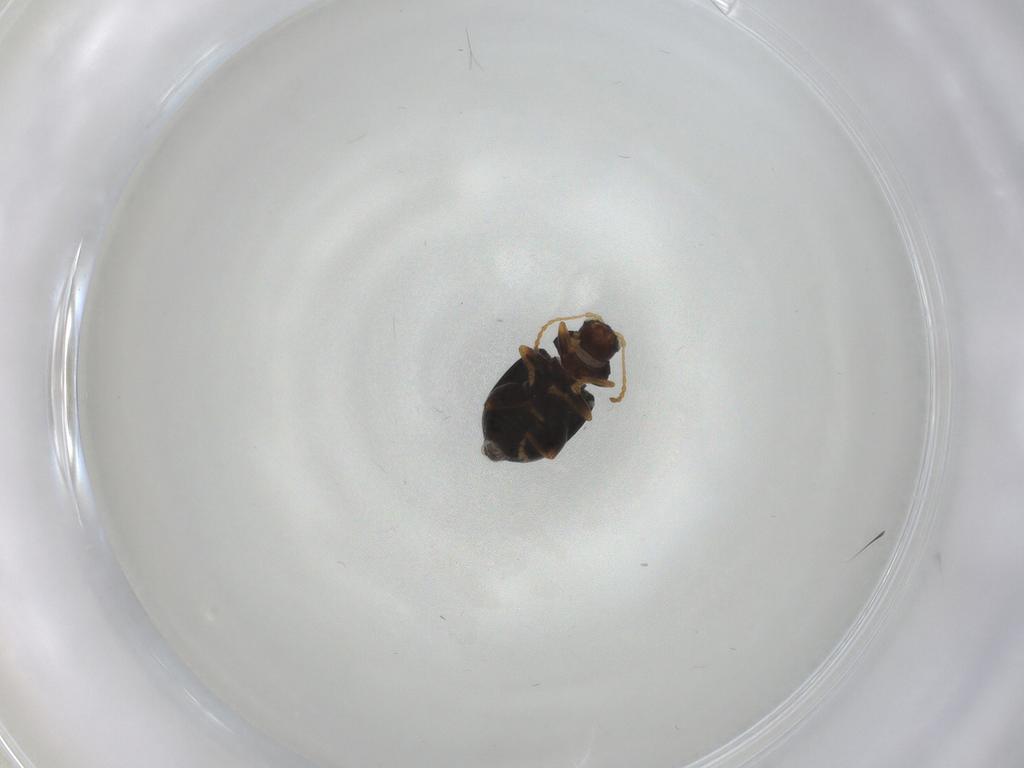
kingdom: Animalia
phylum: Arthropoda
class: Insecta
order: Coleoptera
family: Chrysomelidae
